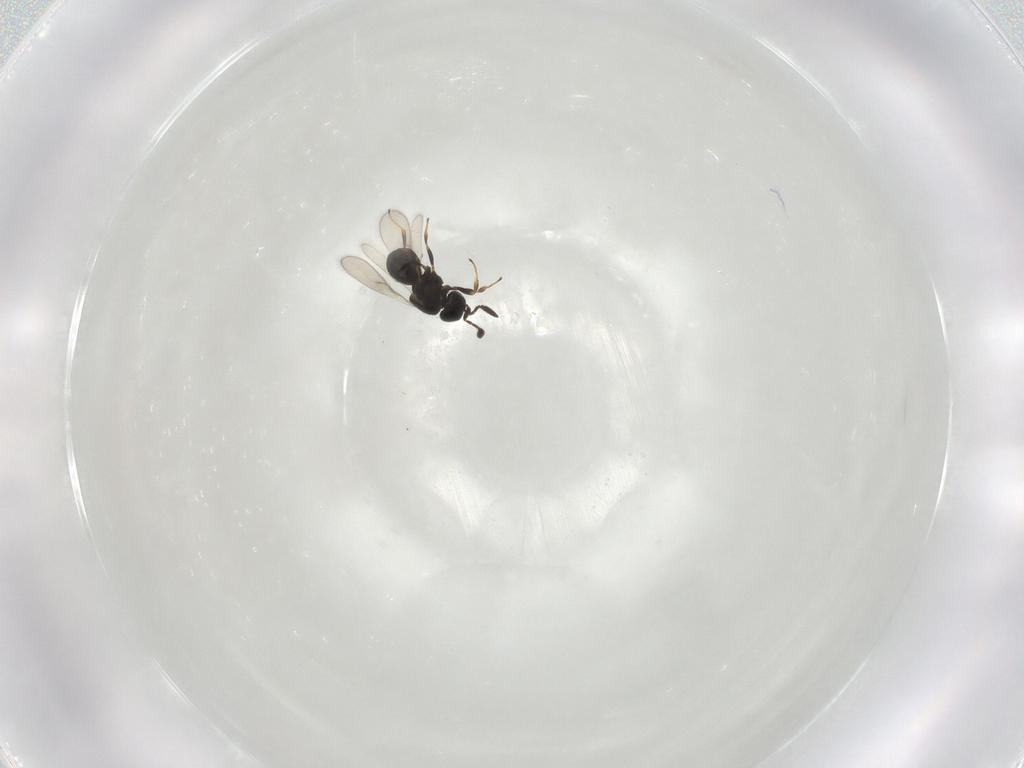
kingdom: Animalia
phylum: Arthropoda
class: Insecta
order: Hymenoptera
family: Scelionidae
